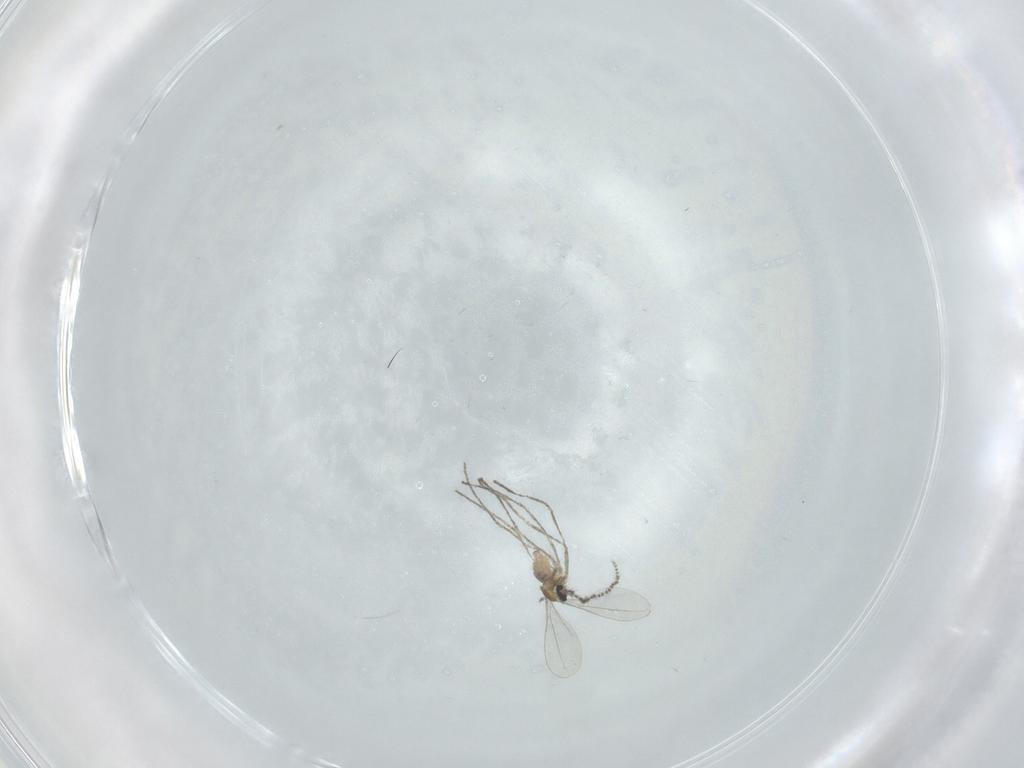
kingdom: Animalia
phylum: Arthropoda
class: Insecta
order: Diptera
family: Cecidomyiidae
